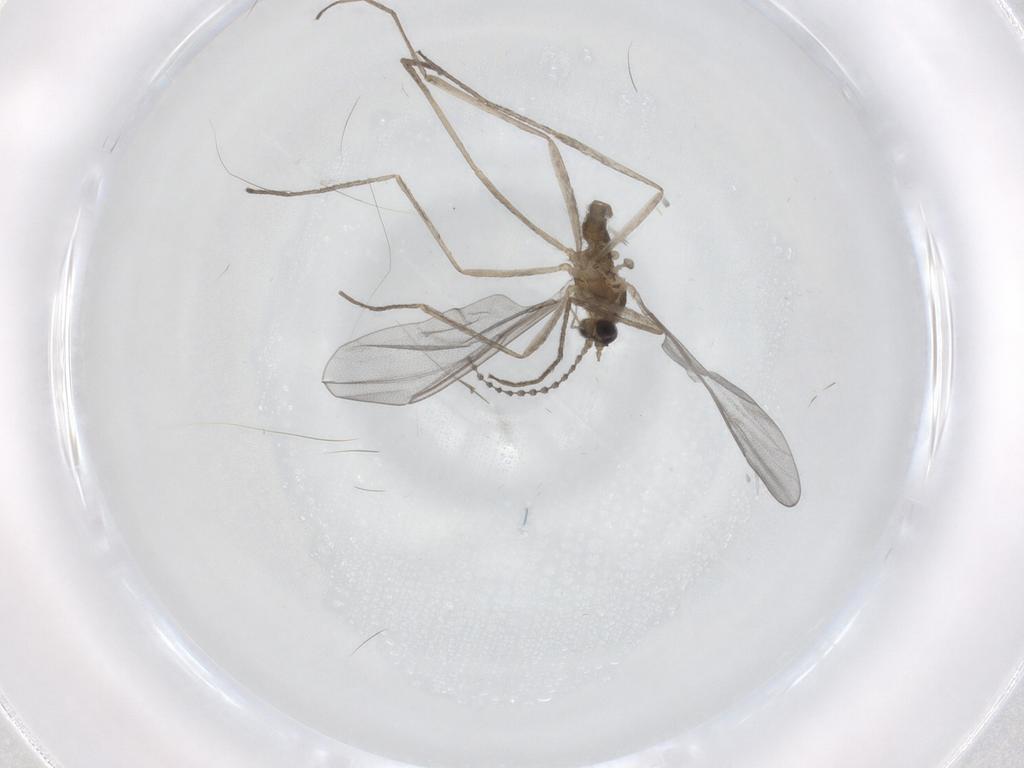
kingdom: Animalia
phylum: Arthropoda
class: Insecta
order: Diptera
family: Cecidomyiidae
